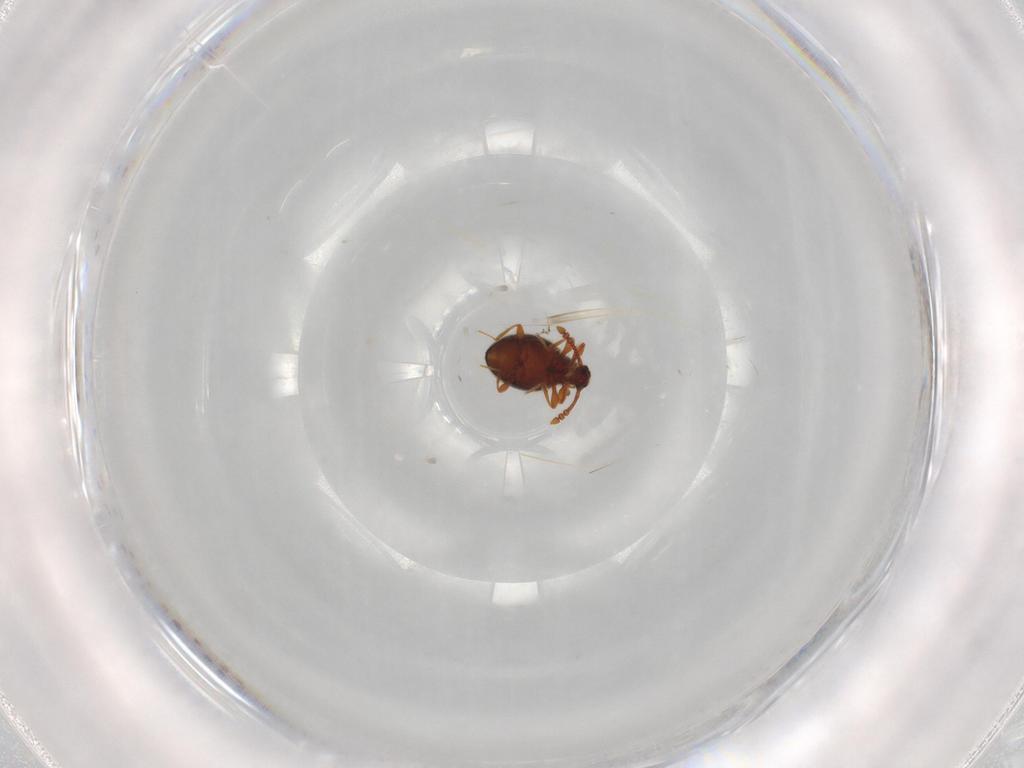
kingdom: Animalia
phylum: Arthropoda
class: Insecta
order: Coleoptera
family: Staphylinidae
